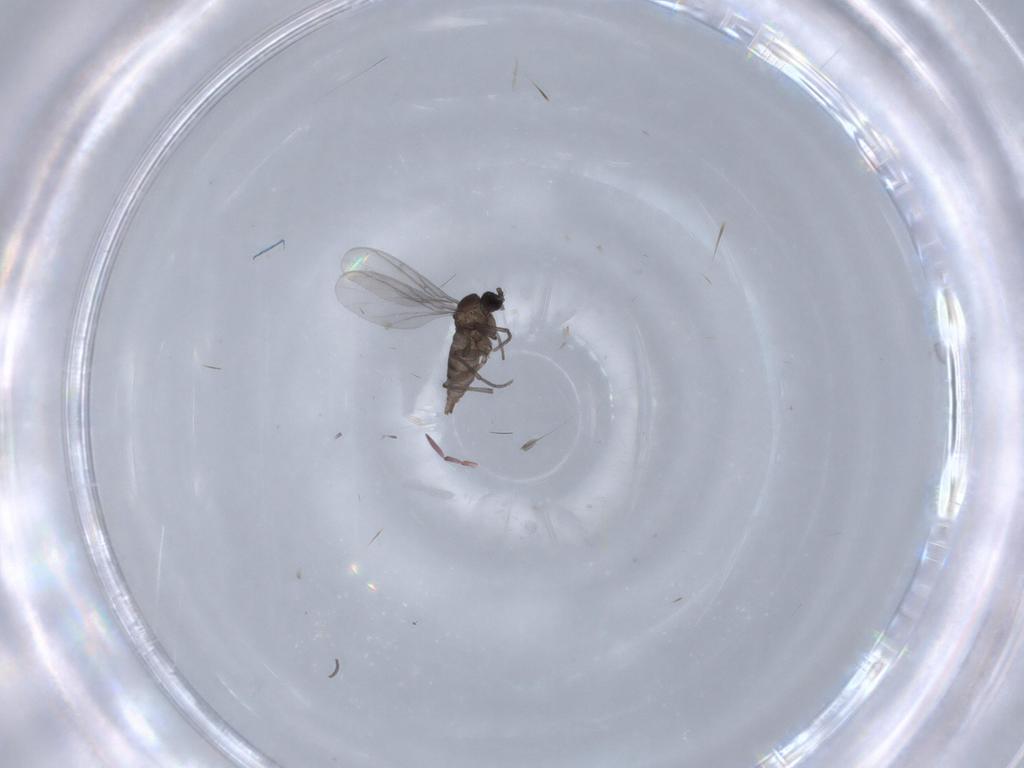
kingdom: Animalia
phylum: Arthropoda
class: Insecta
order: Diptera
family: Sciaridae
